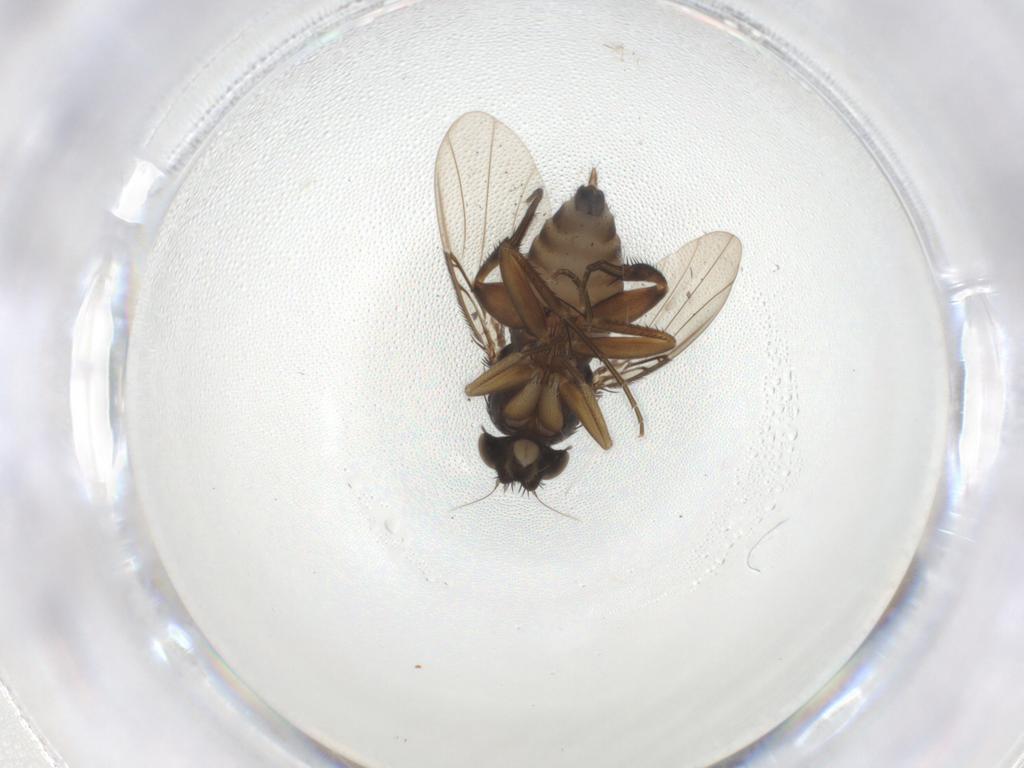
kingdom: Animalia
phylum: Arthropoda
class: Insecta
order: Diptera
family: Phoridae
